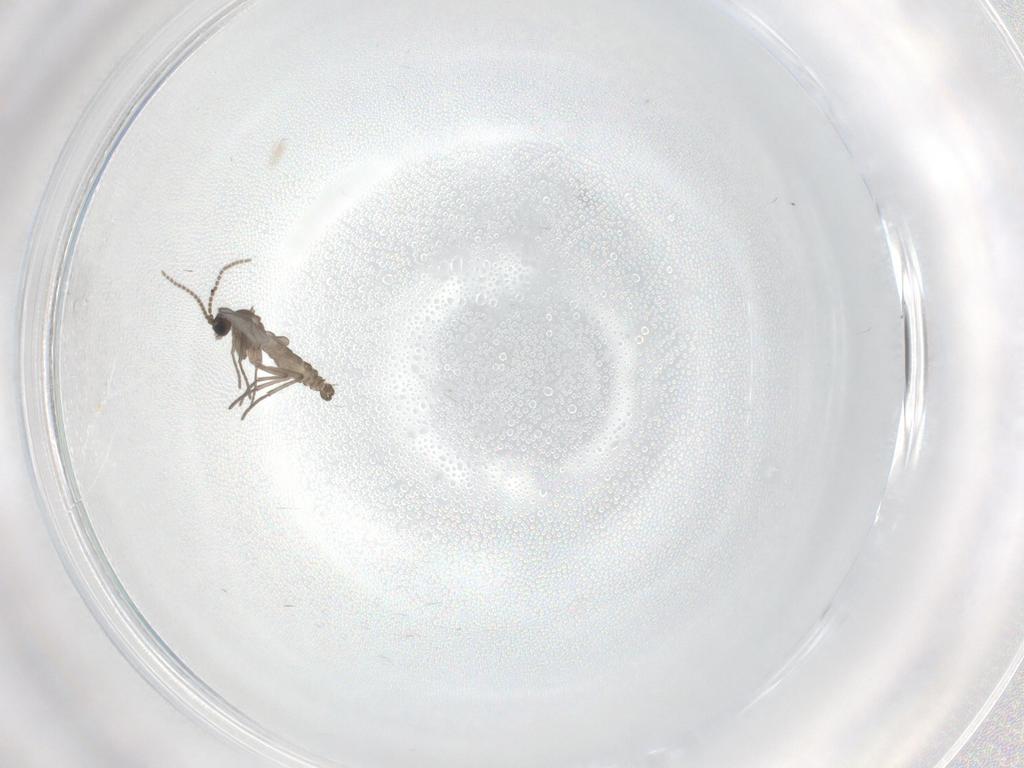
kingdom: Animalia
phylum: Arthropoda
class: Insecta
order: Diptera
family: Sciaridae
